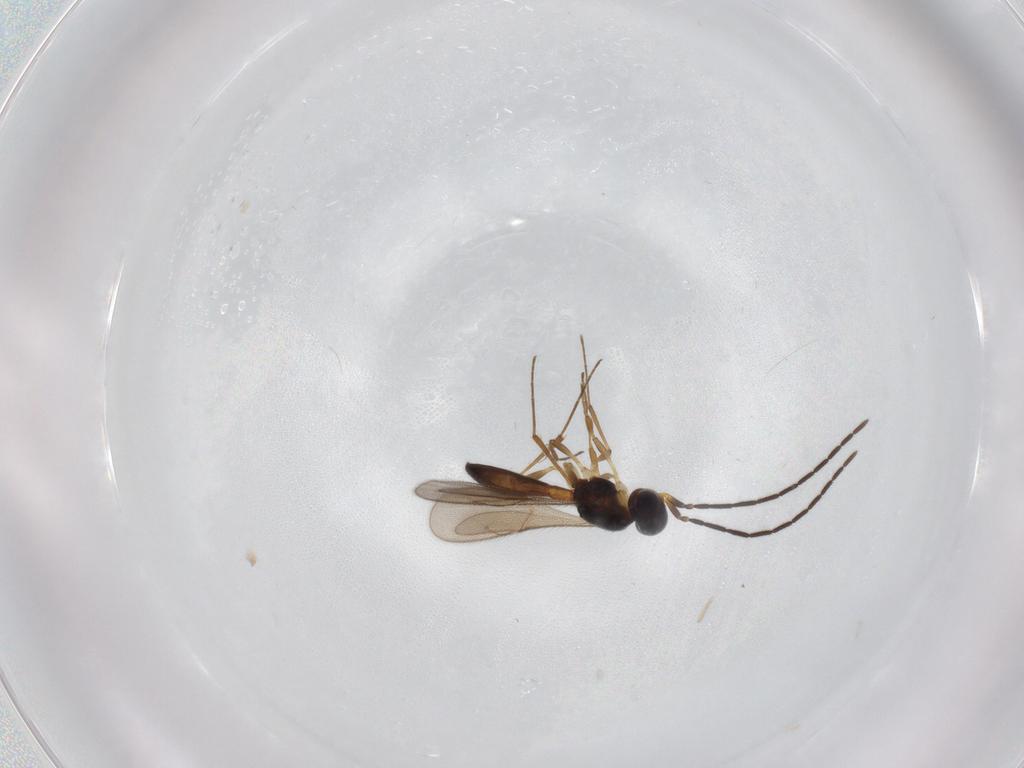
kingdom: Animalia
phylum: Arthropoda
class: Insecta
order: Hymenoptera
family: Scelionidae
